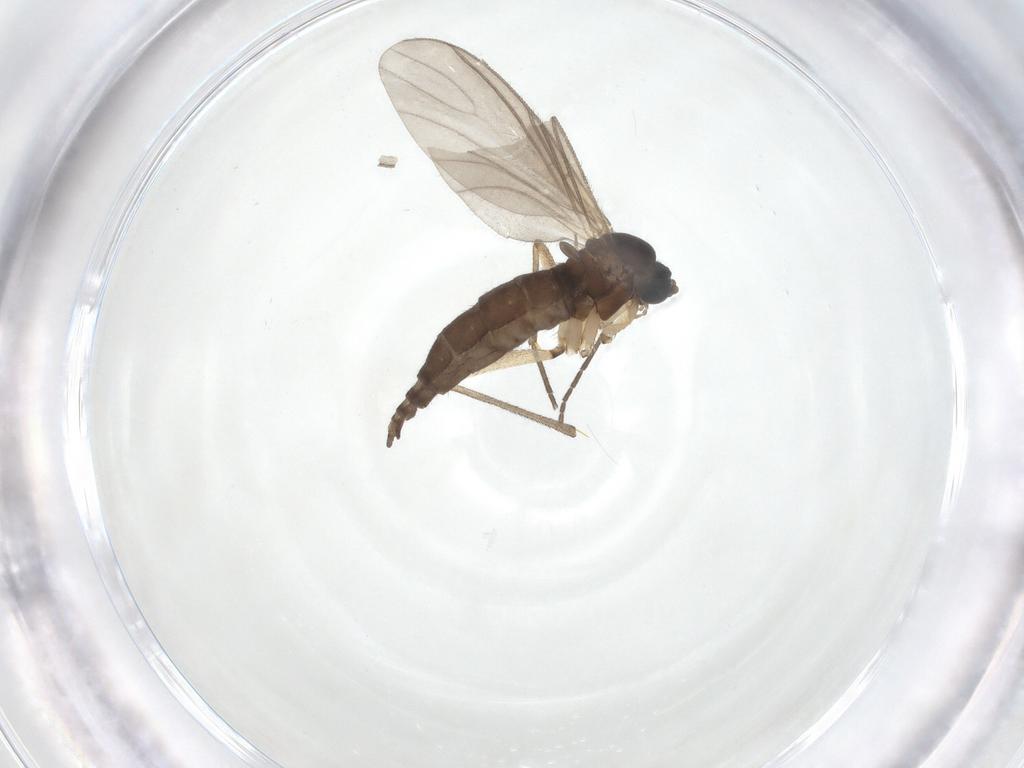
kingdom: Animalia
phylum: Arthropoda
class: Insecta
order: Diptera
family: Sciaridae
